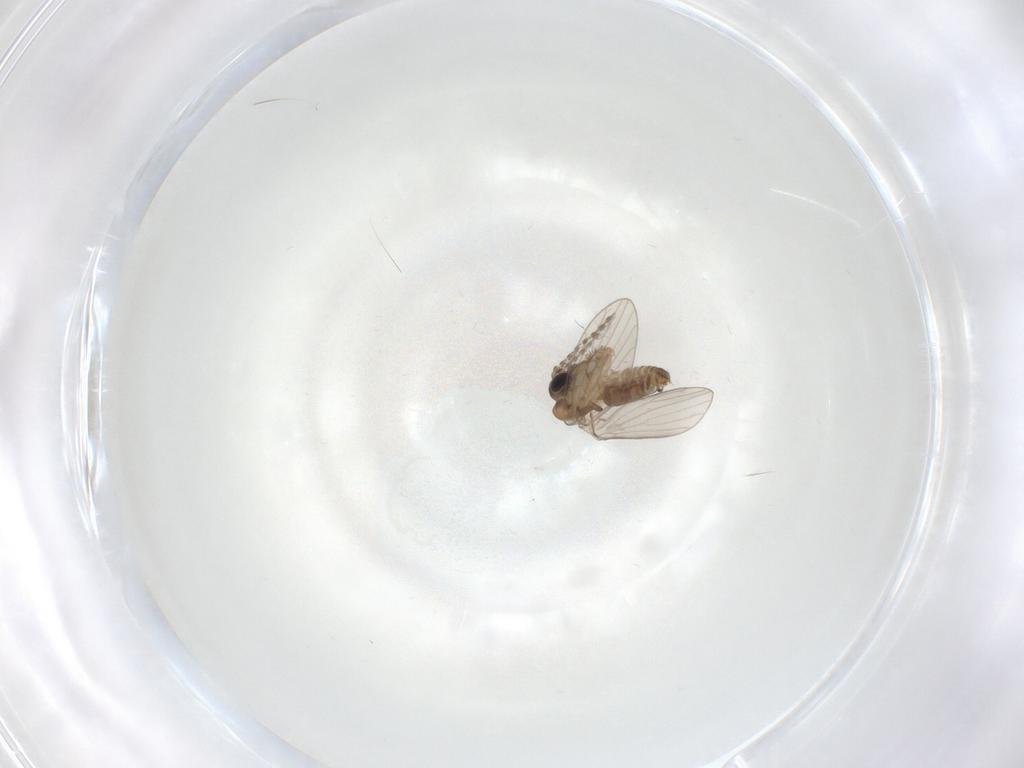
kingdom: Animalia
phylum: Arthropoda
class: Insecta
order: Diptera
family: Psychodidae
